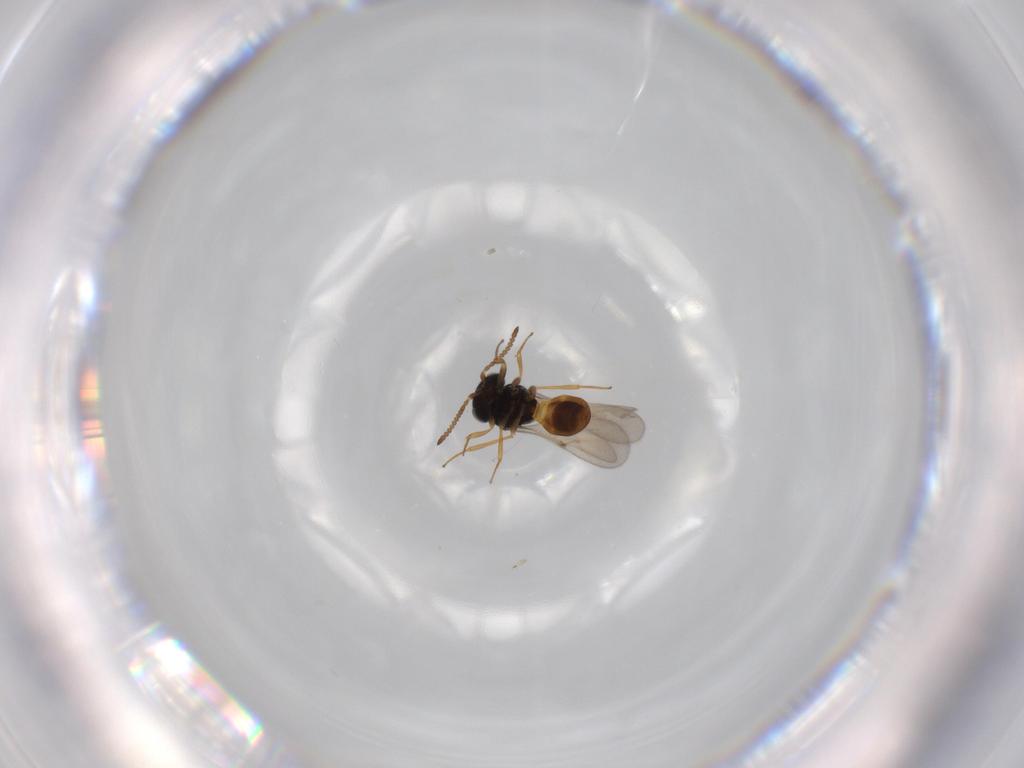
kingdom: Animalia
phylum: Arthropoda
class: Insecta
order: Hymenoptera
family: Scelionidae
